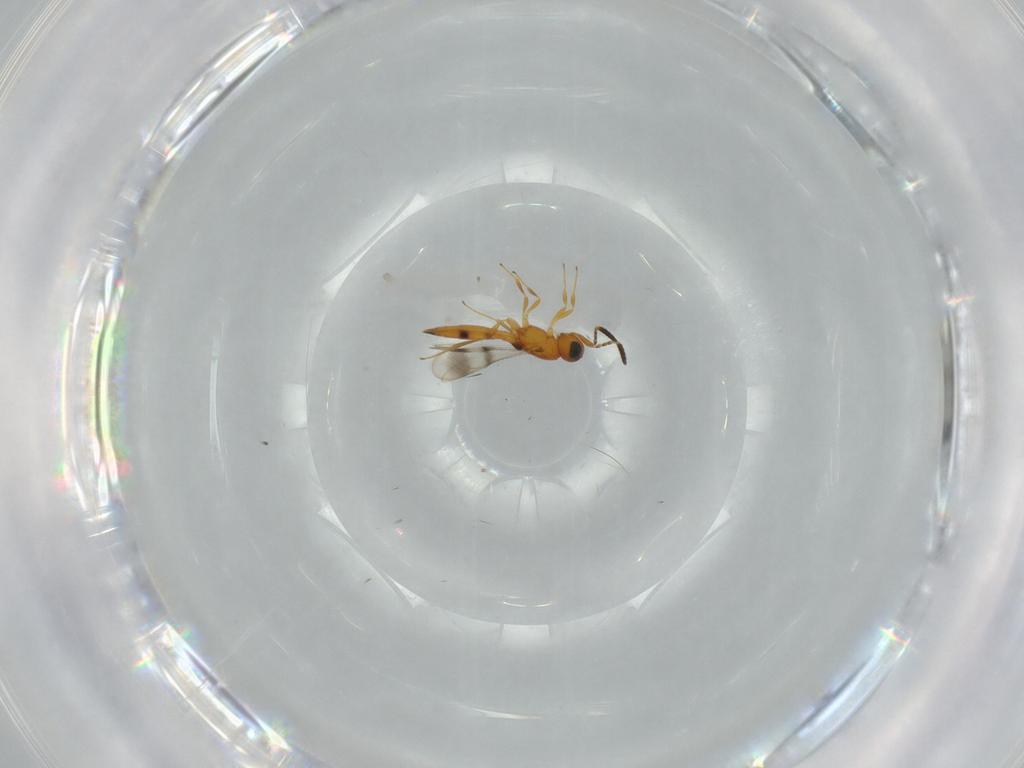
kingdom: Animalia
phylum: Arthropoda
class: Insecta
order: Hymenoptera
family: Scelionidae
